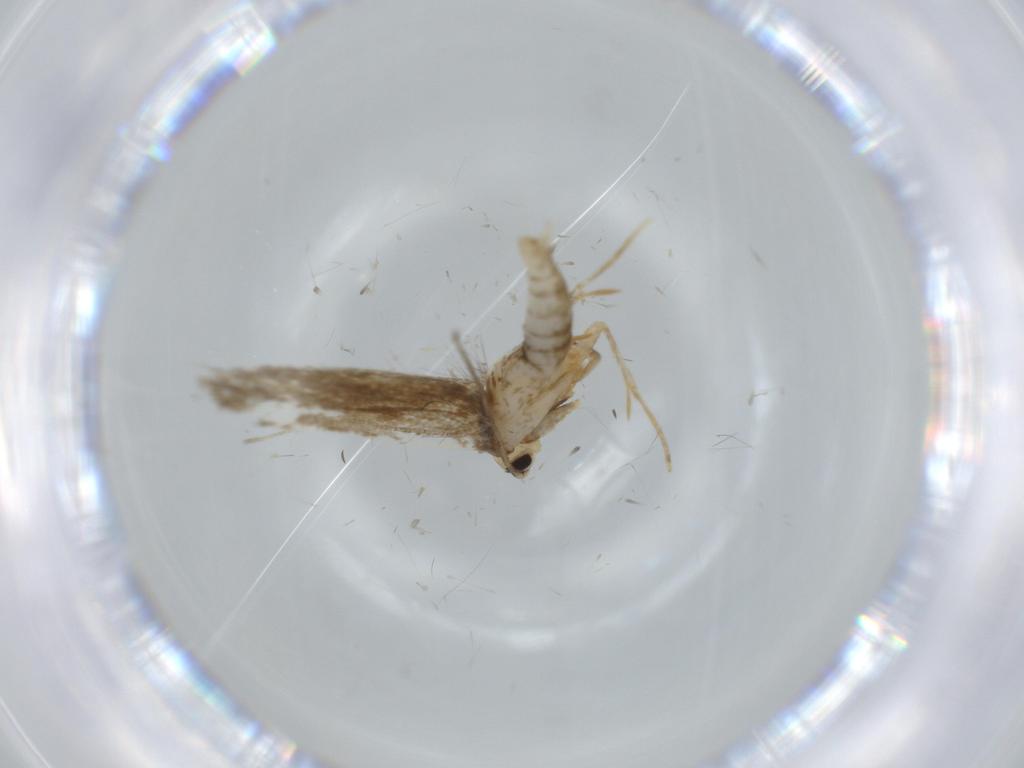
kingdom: Animalia
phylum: Arthropoda
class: Insecta
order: Lepidoptera
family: Tineidae
